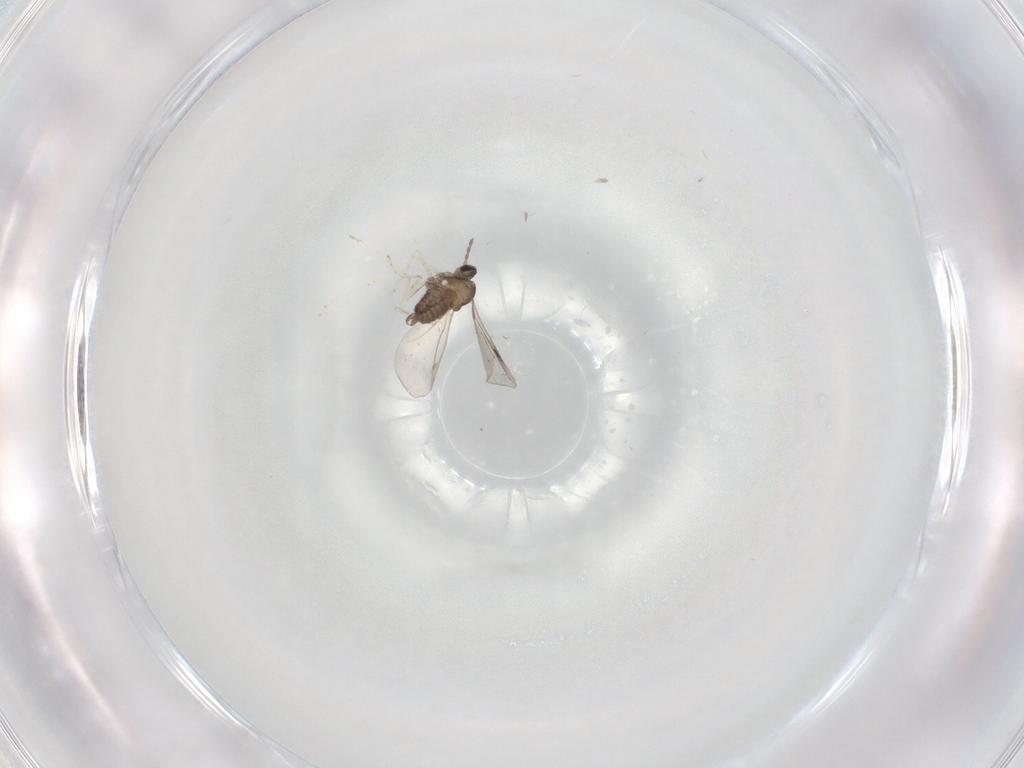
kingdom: Animalia
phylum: Arthropoda
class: Insecta
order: Diptera
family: Cecidomyiidae
